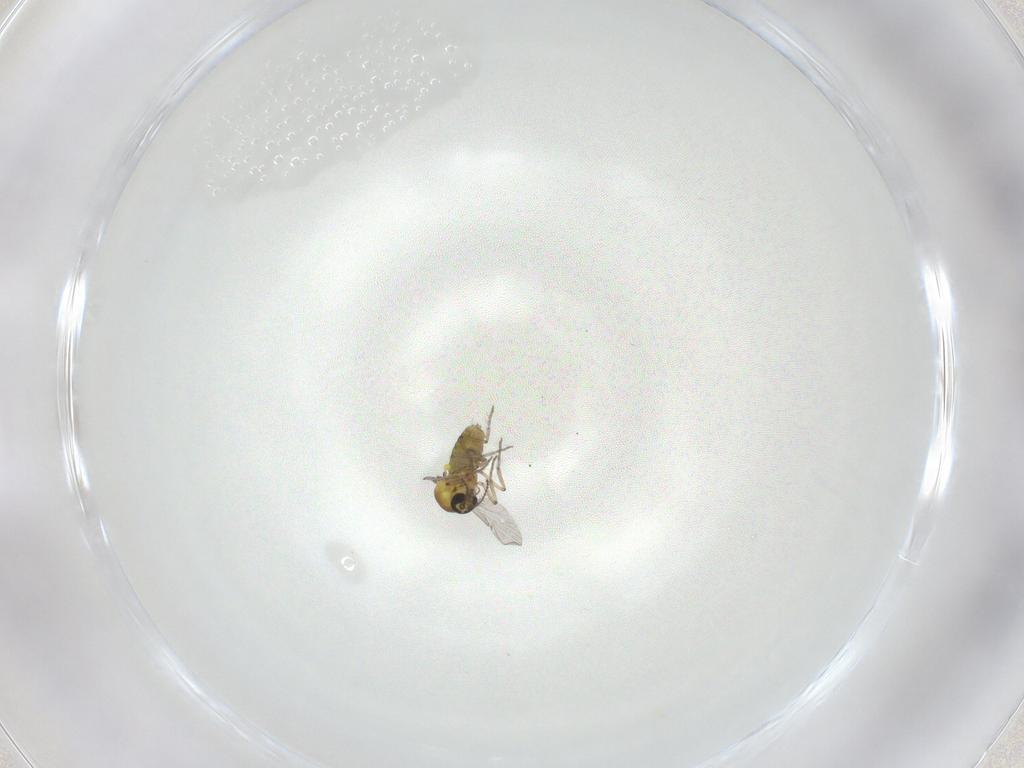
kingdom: Animalia
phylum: Arthropoda
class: Insecta
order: Diptera
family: Ceratopogonidae
